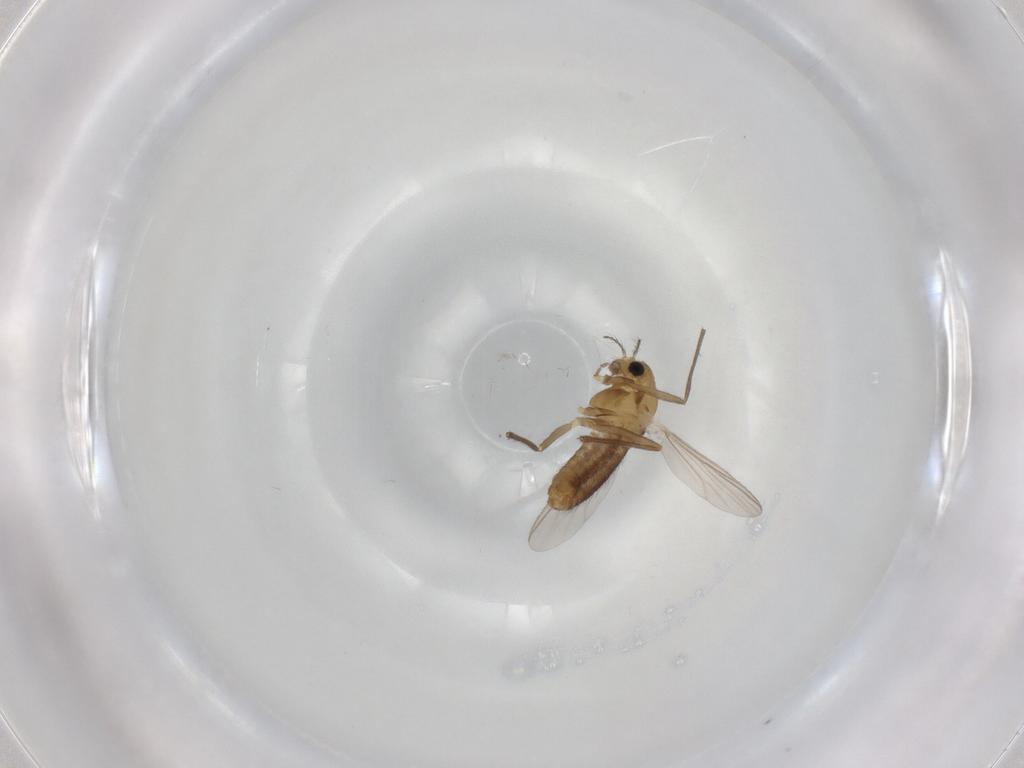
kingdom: Animalia
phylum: Arthropoda
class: Insecta
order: Diptera
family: Chironomidae
